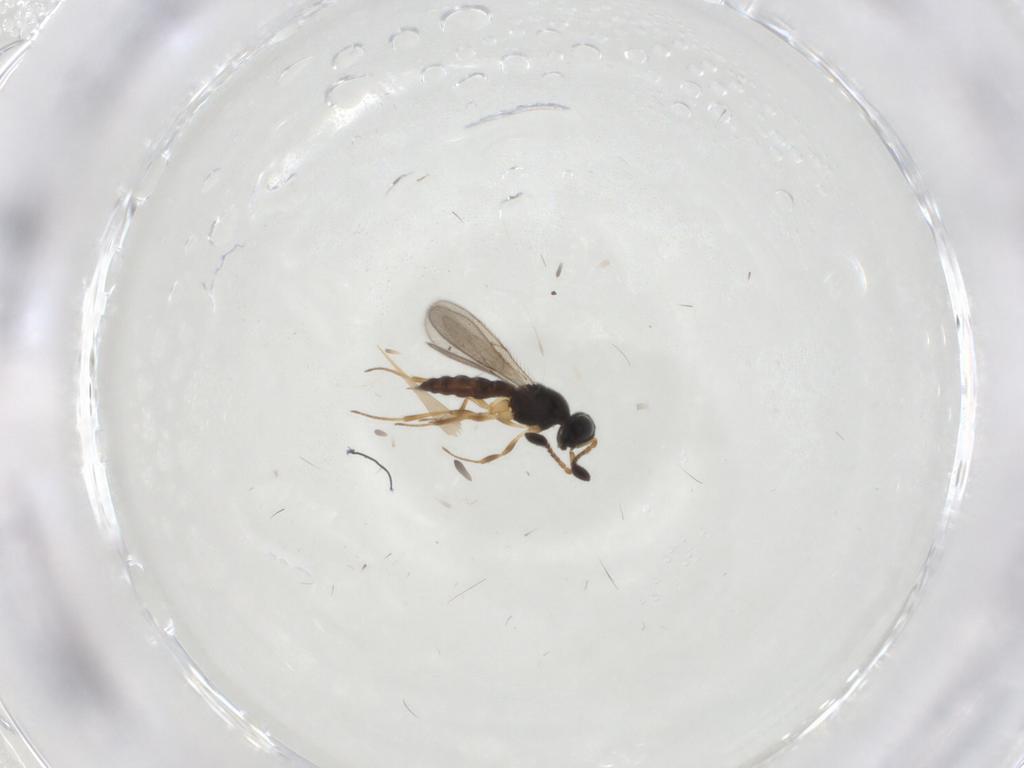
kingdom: Animalia
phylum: Arthropoda
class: Insecta
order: Hymenoptera
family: Scelionidae
